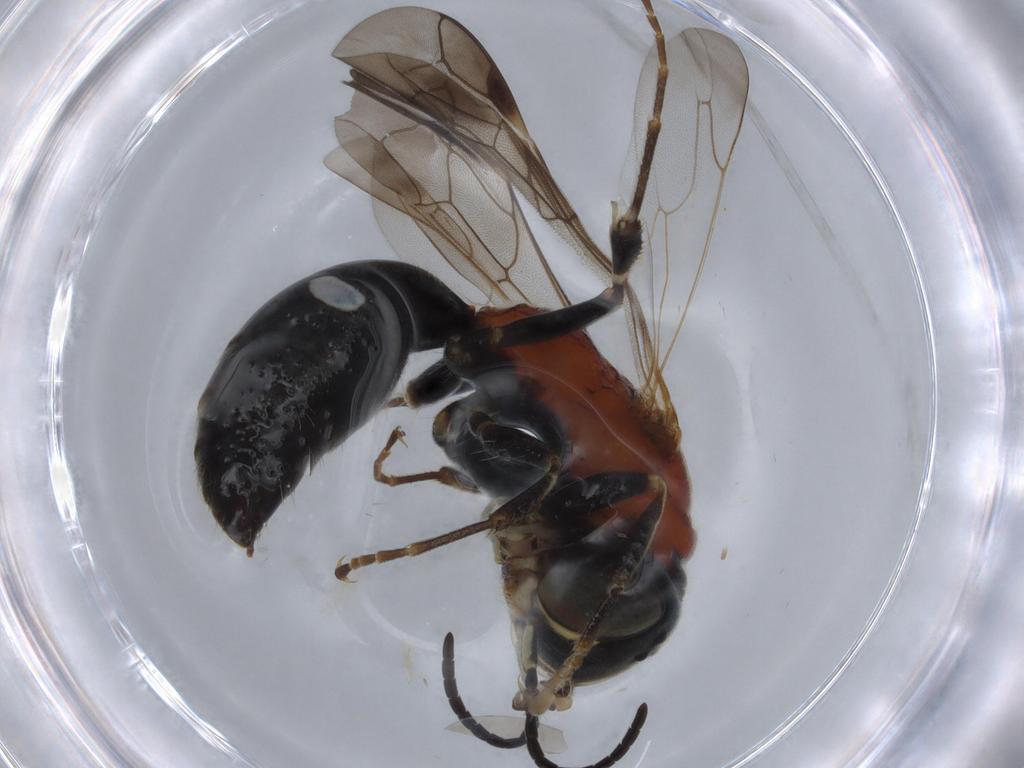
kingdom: Animalia
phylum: Arthropoda
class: Insecta
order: Hymenoptera
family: Bembicidae
